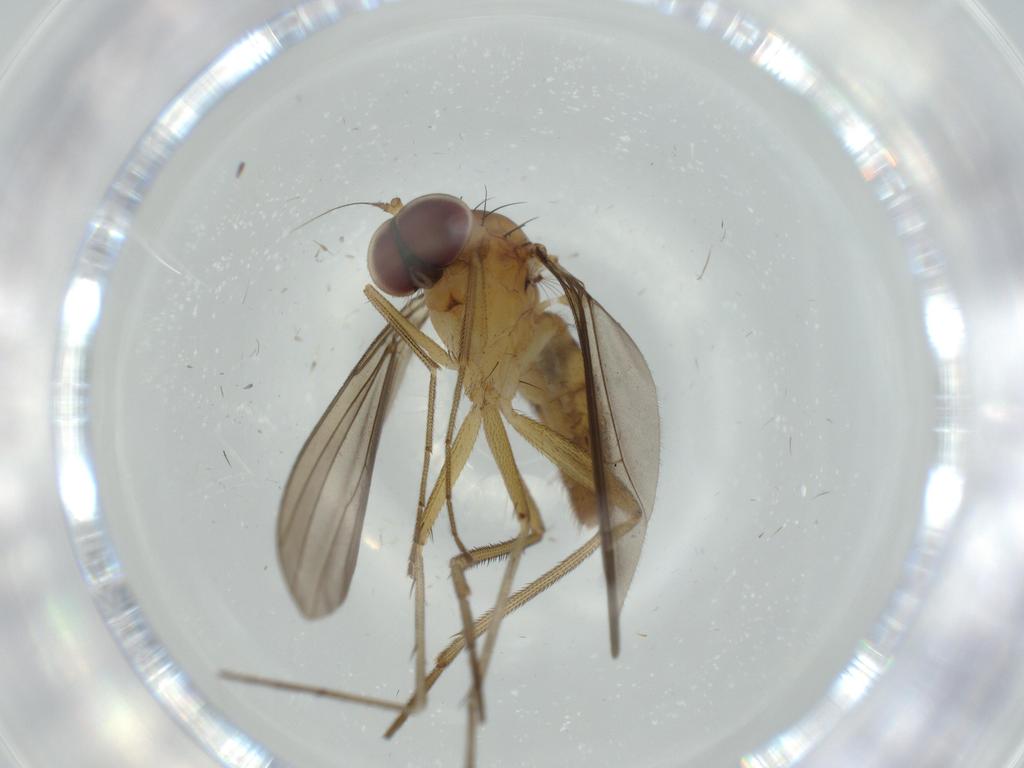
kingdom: Animalia
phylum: Arthropoda
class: Insecta
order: Diptera
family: Dolichopodidae
